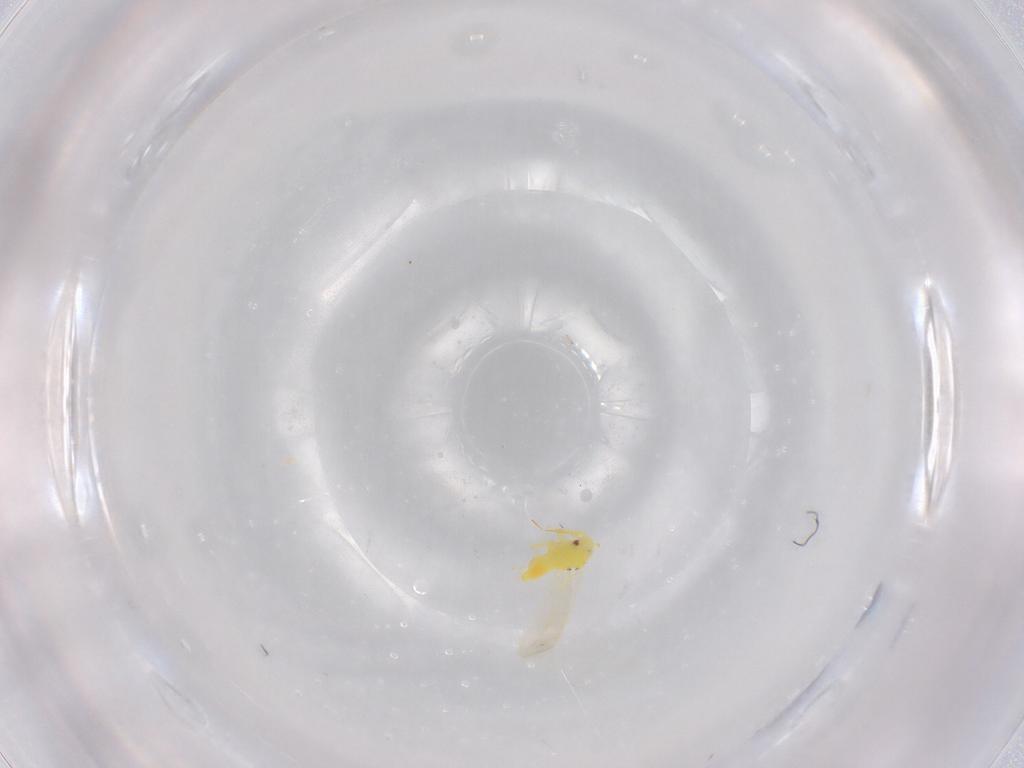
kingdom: Animalia
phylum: Arthropoda
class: Insecta
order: Hemiptera
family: Aleyrodidae
